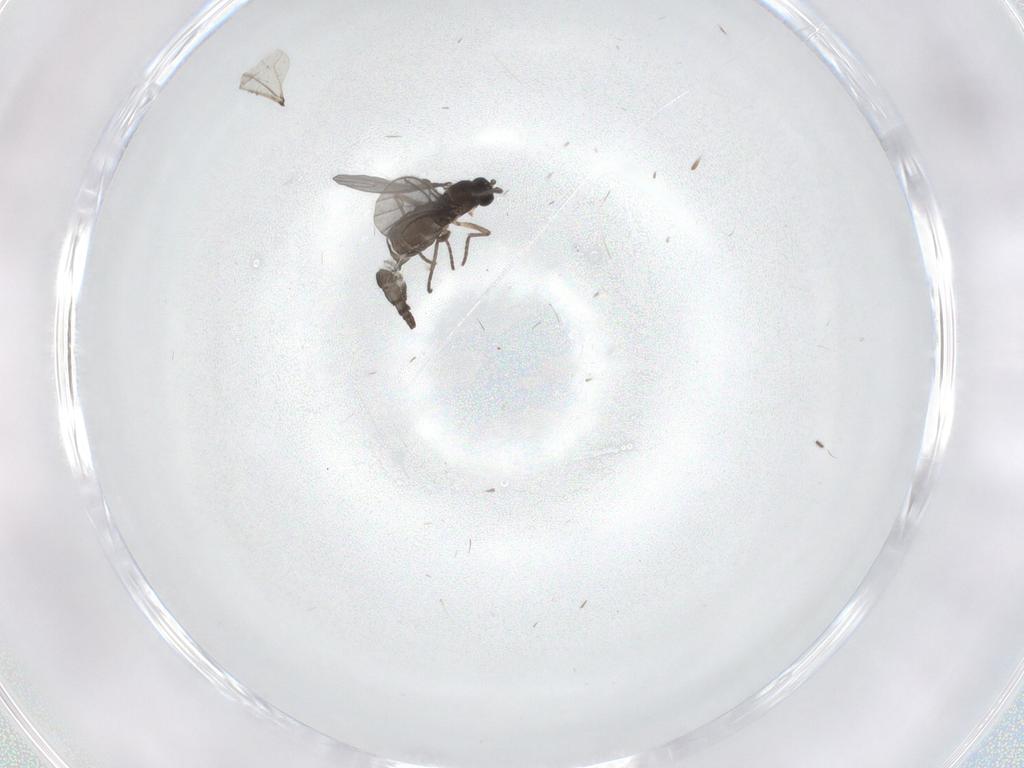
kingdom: Animalia
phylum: Arthropoda
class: Insecta
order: Diptera
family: Sciaridae
